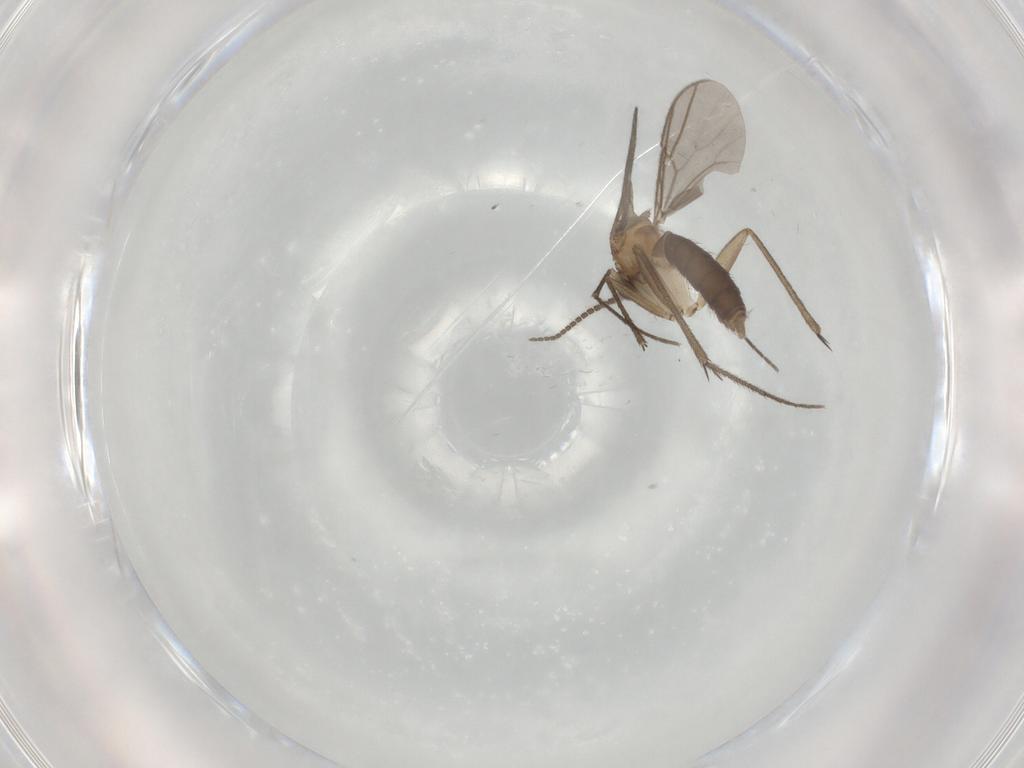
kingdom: Animalia
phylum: Arthropoda
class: Insecta
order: Diptera
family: Mycetophilidae
